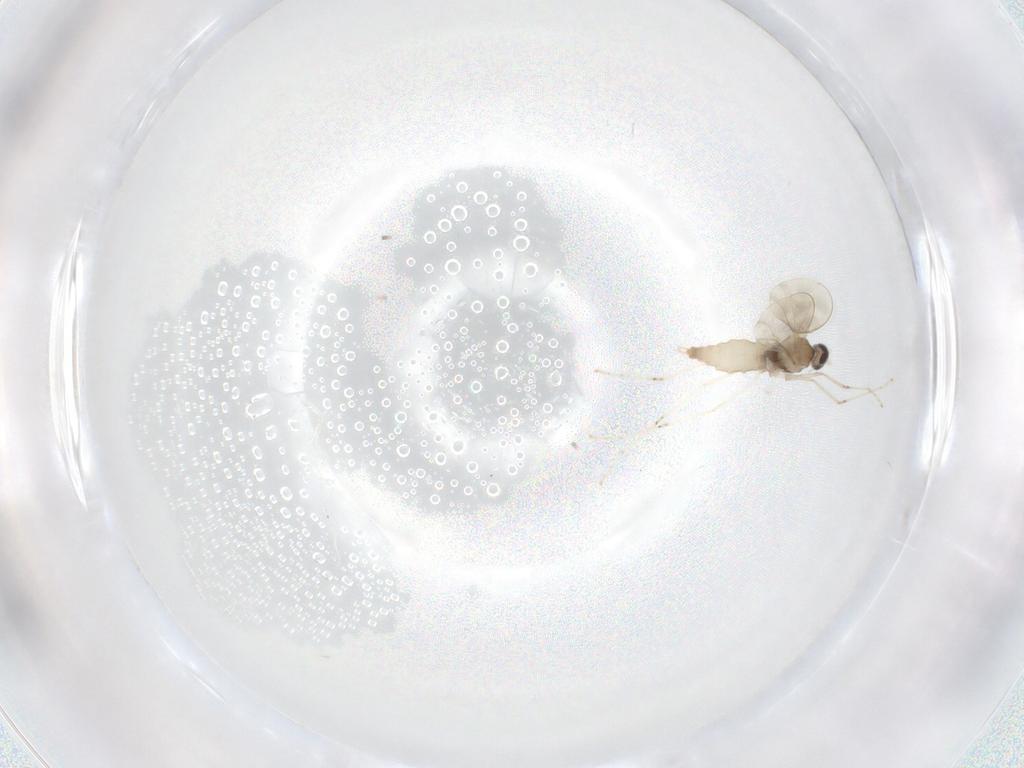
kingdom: Animalia
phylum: Arthropoda
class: Insecta
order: Diptera
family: Cecidomyiidae
